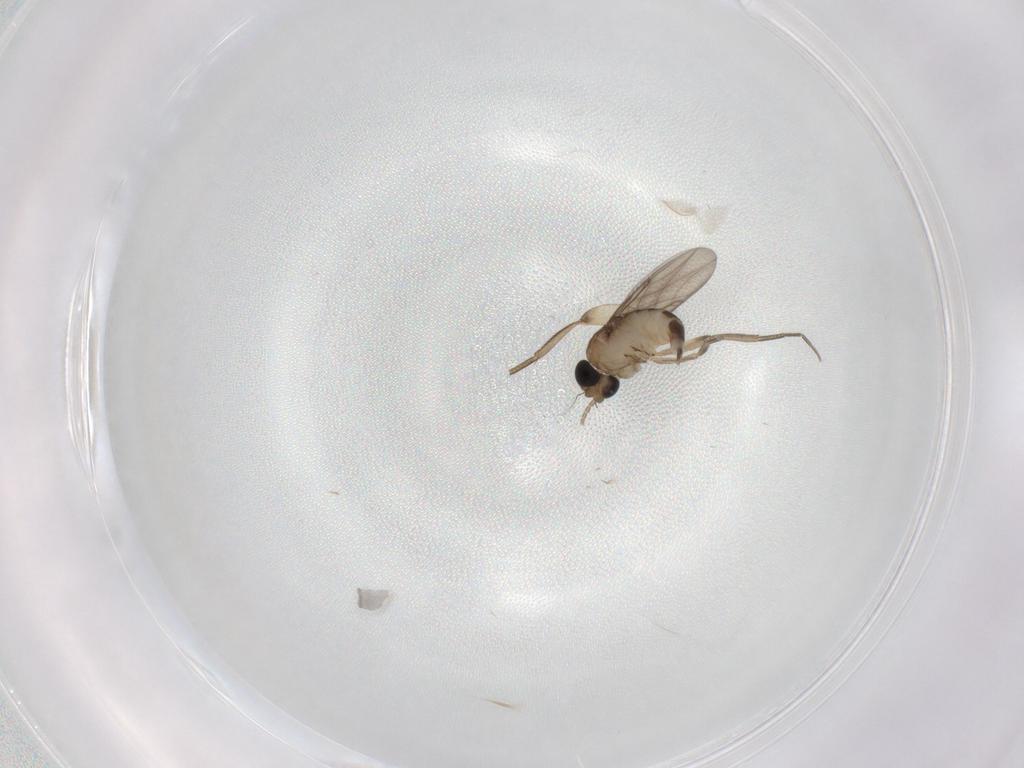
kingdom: Animalia
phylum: Arthropoda
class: Insecta
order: Diptera
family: Phoridae
